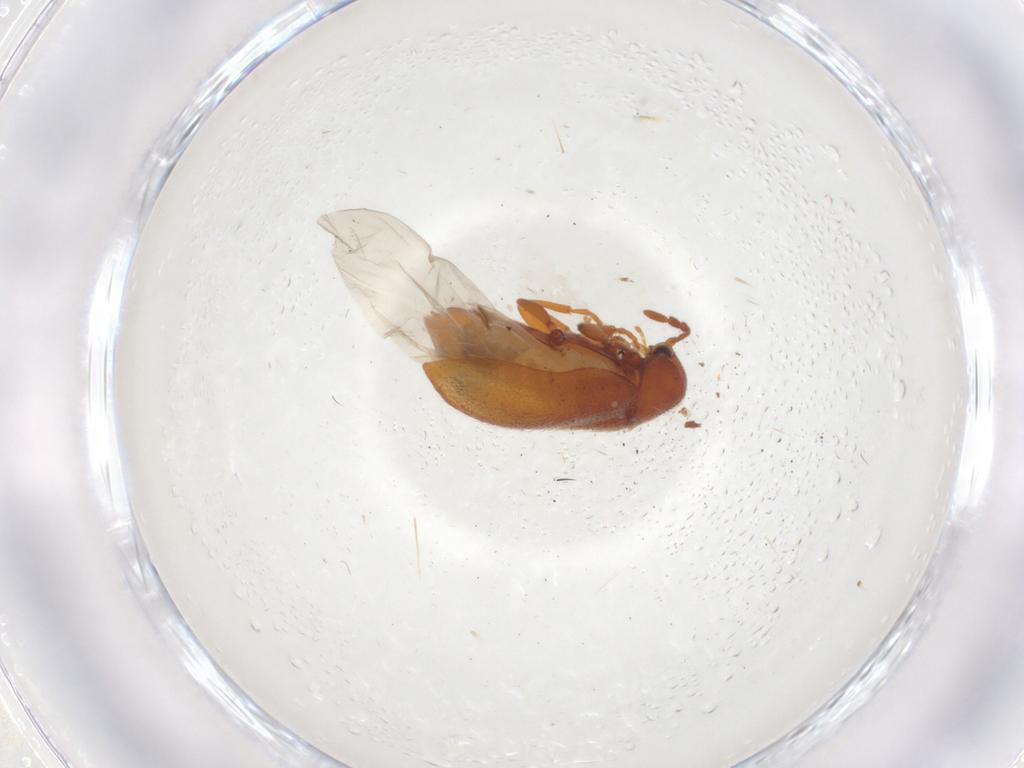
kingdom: Animalia
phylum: Arthropoda
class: Insecta
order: Coleoptera
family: Ptinidae
